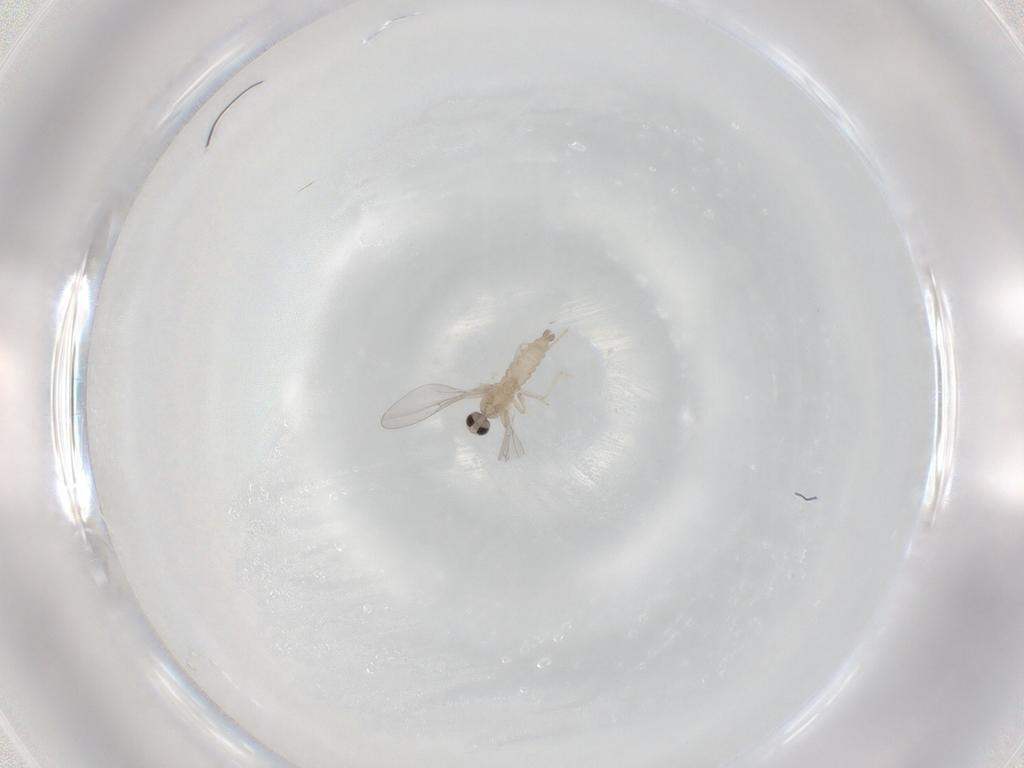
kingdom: Animalia
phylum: Arthropoda
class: Insecta
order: Diptera
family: Cecidomyiidae
